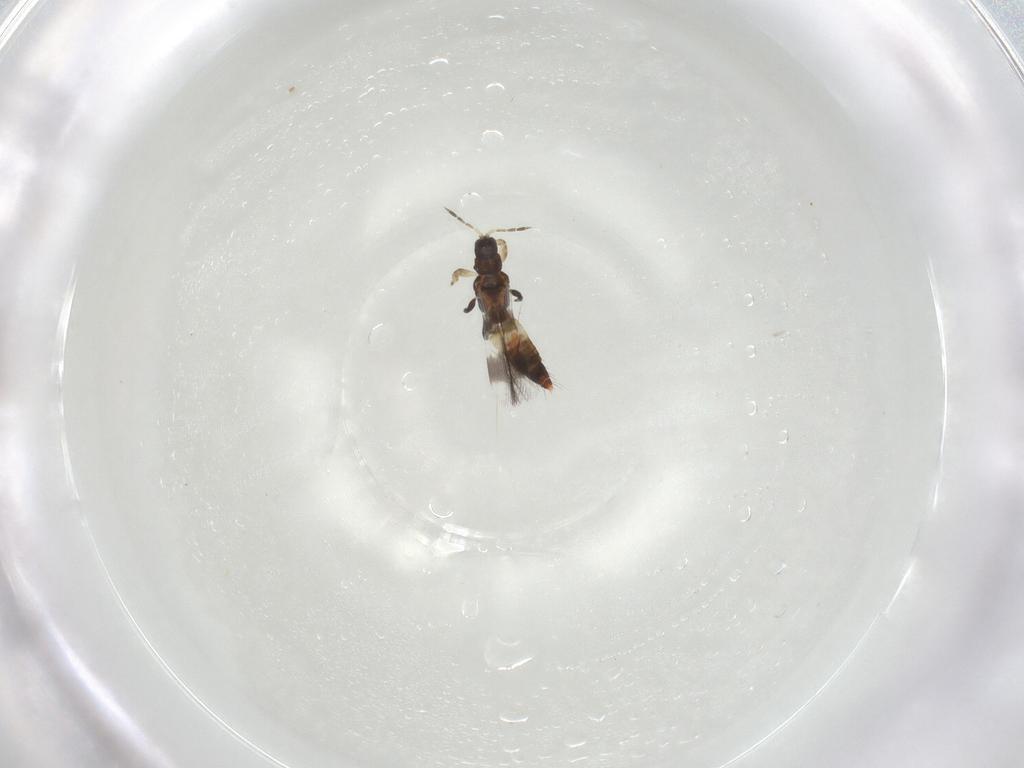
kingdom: Animalia
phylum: Arthropoda
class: Insecta
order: Thysanoptera
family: Aeolothripidae
